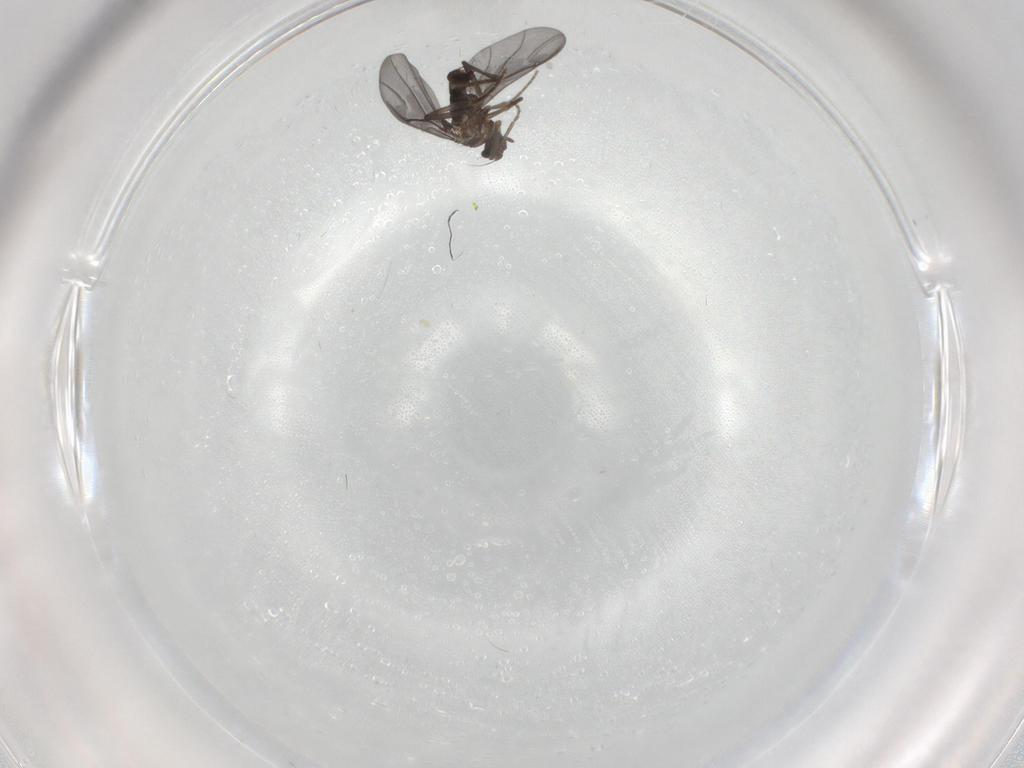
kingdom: Animalia
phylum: Arthropoda
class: Insecta
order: Diptera
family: Phoridae
